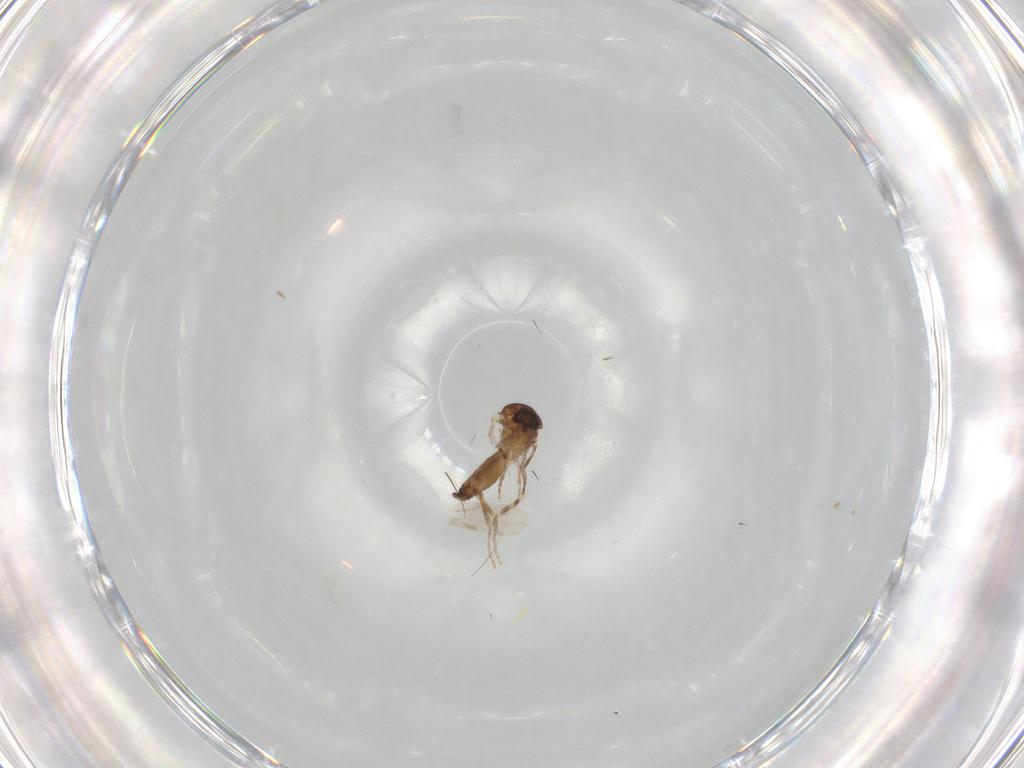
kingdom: Animalia
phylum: Arthropoda
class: Insecta
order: Diptera
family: Ceratopogonidae
